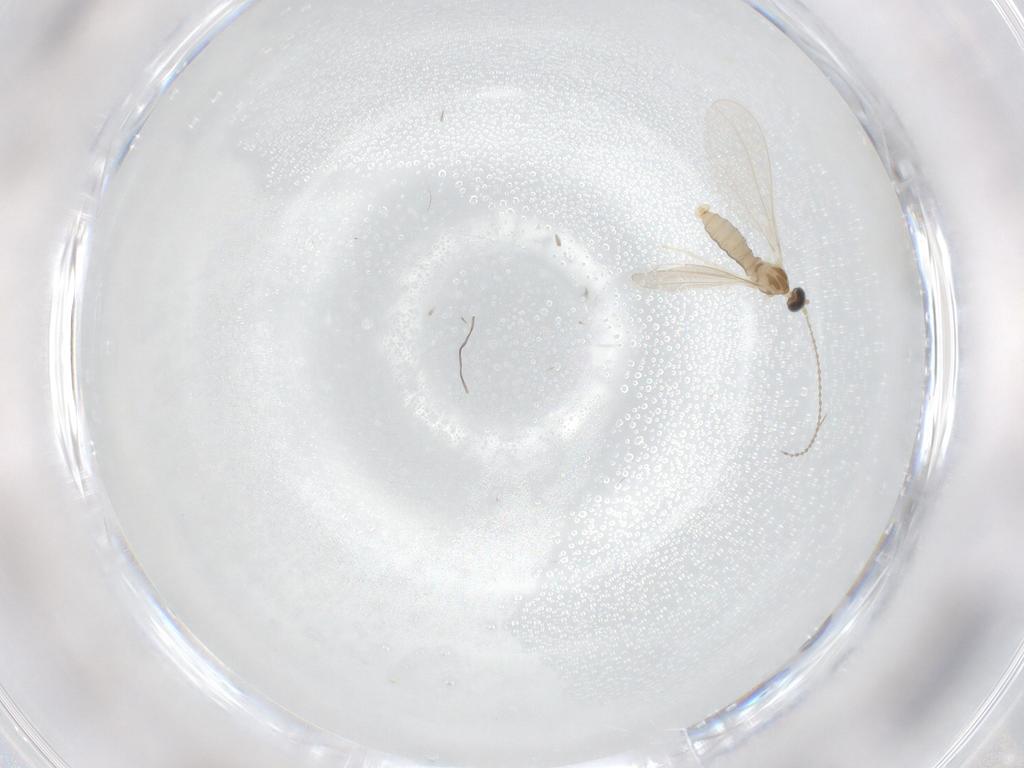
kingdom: Animalia
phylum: Arthropoda
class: Insecta
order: Diptera
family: Cecidomyiidae
